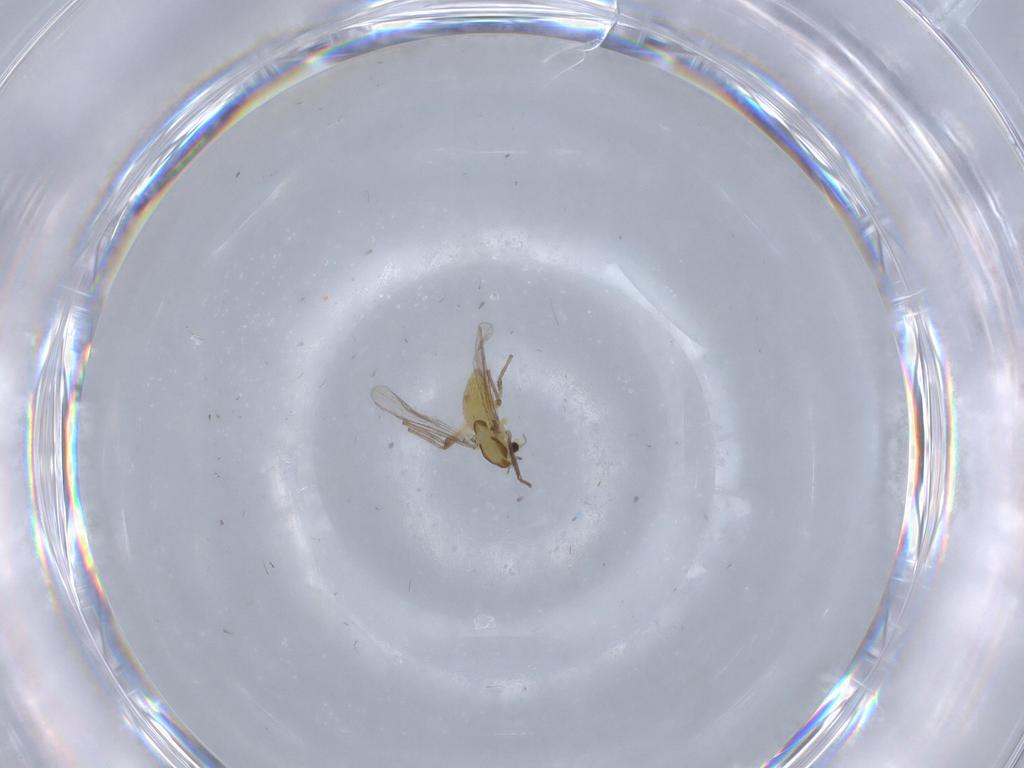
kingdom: Animalia
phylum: Arthropoda
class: Insecta
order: Diptera
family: Chironomidae
